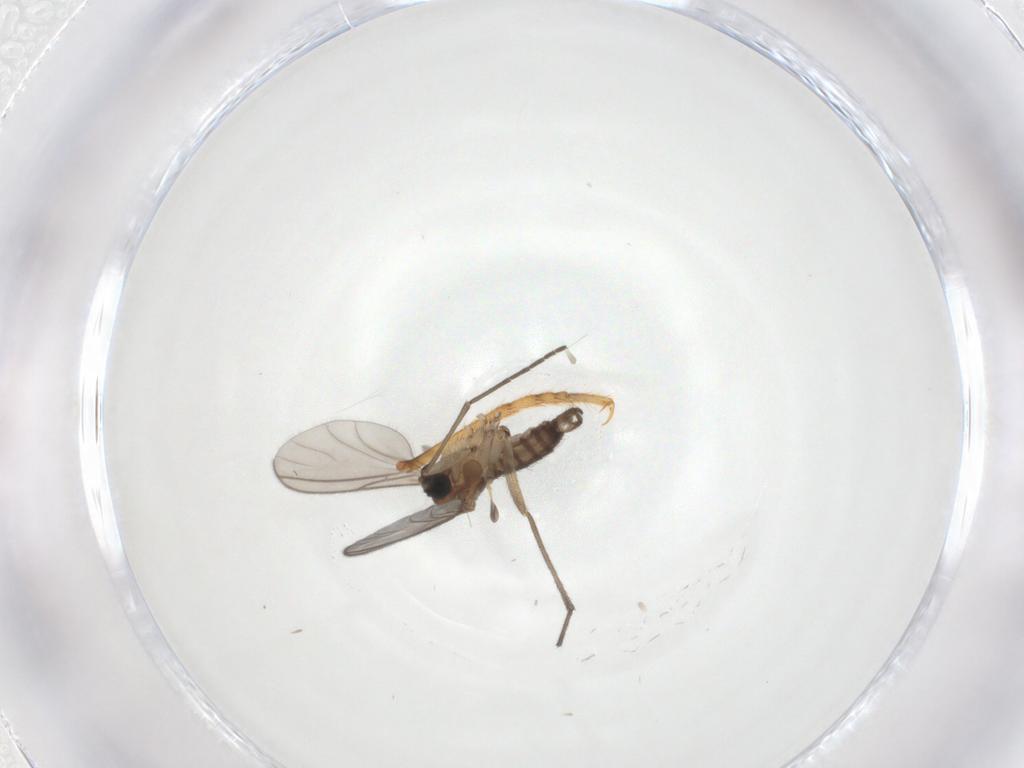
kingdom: Animalia
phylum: Arthropoda
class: Insecta
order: Diptera
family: Sciaridae
